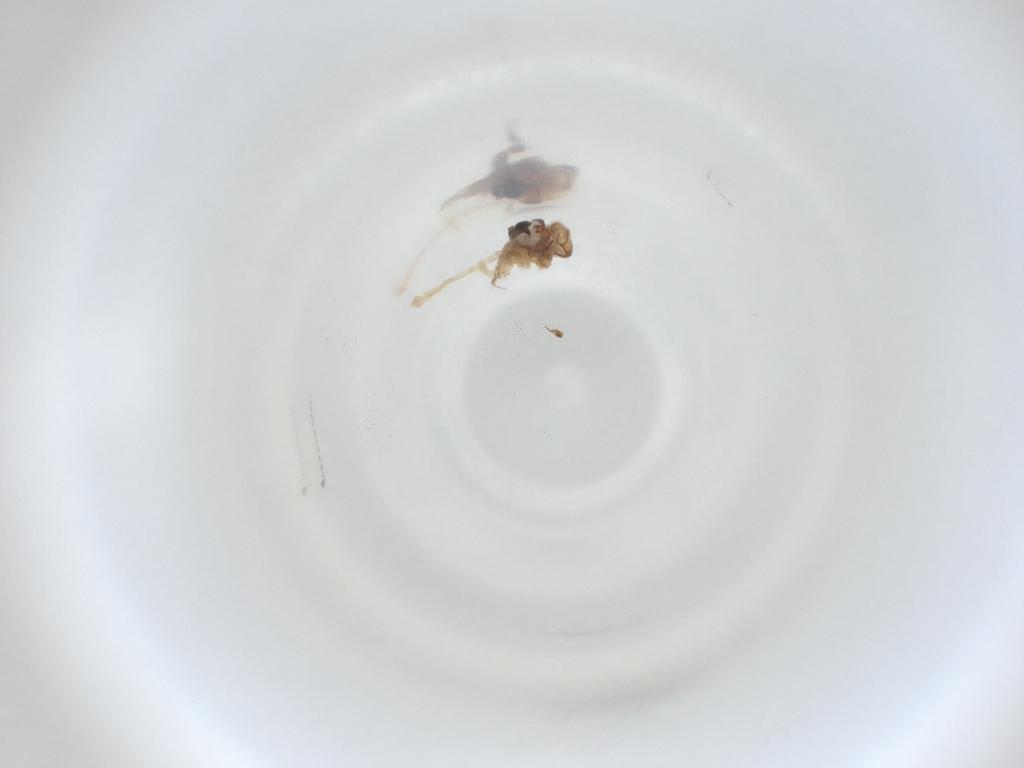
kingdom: Animalia
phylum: Arthropoda
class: Insecta
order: Diptera
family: Cecidomyiidae
